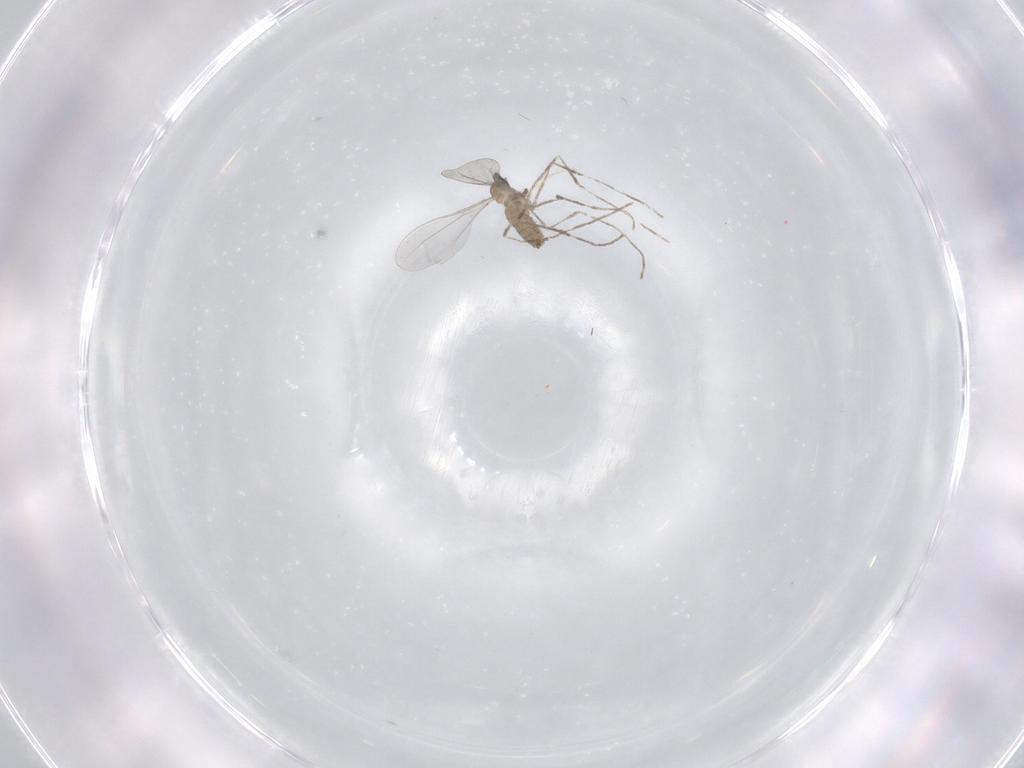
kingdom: Animalia
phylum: Arthropoda
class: Insecta
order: Diptera
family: Cecidomyiidae
